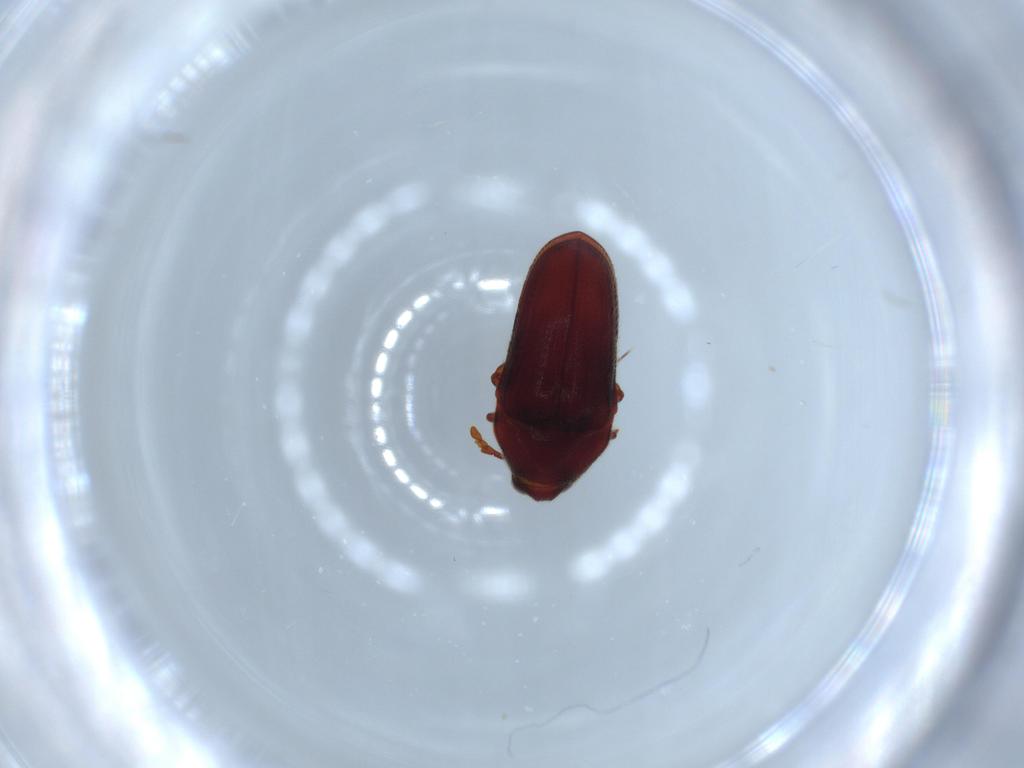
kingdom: Animalia
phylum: Arthropoda
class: Insecta
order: Coleoptera
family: Throscidae
